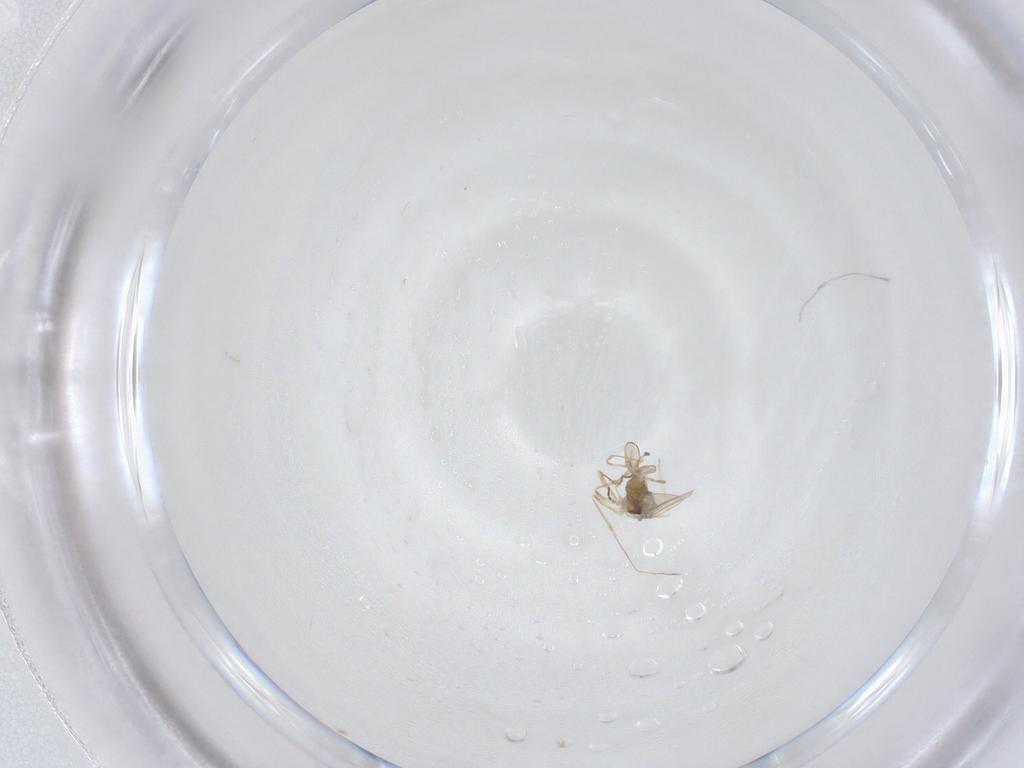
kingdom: Animalia
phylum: Arthropoda
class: Insecta
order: Diptera
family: Cecidomyiidae
